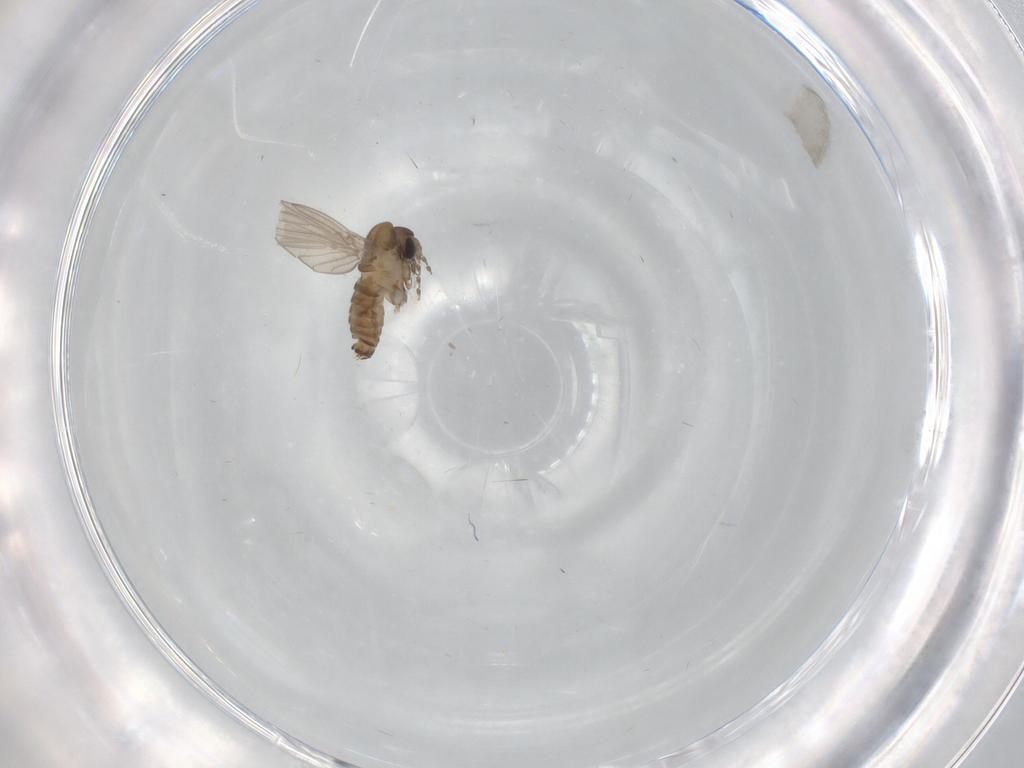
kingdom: Animalia
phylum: Arthropoda
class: Insecta
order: Diptera
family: Psychodidae
